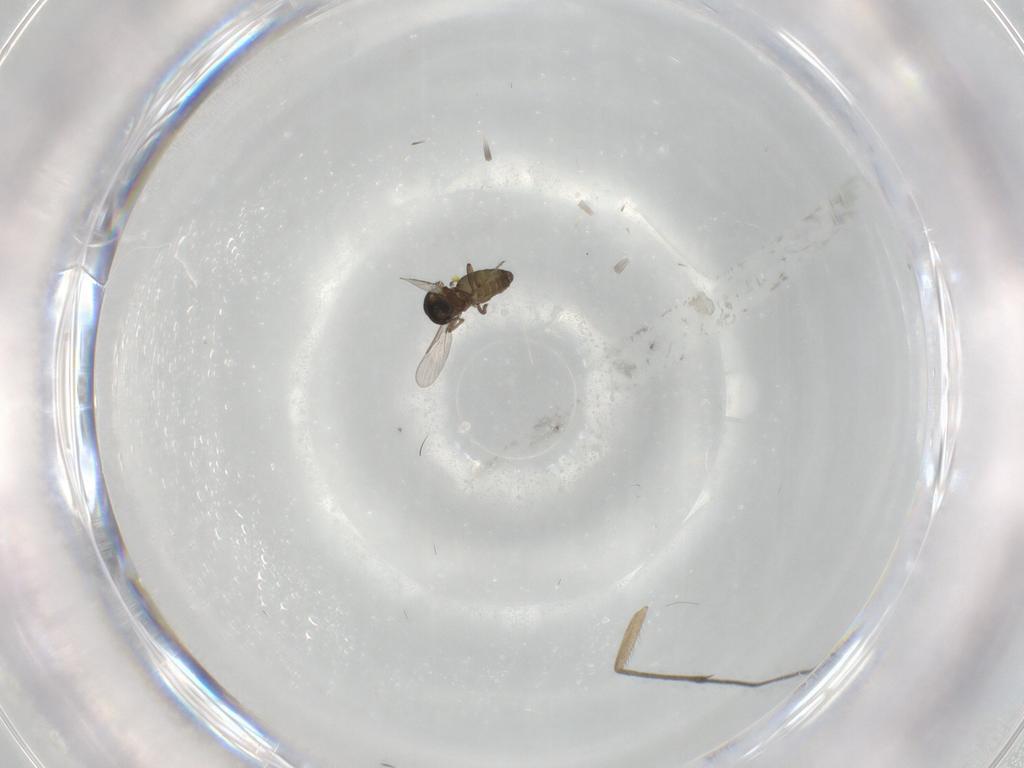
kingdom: Animalia
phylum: Arthropoda
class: Insecta
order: Diptera
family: Ceratopogonidae
